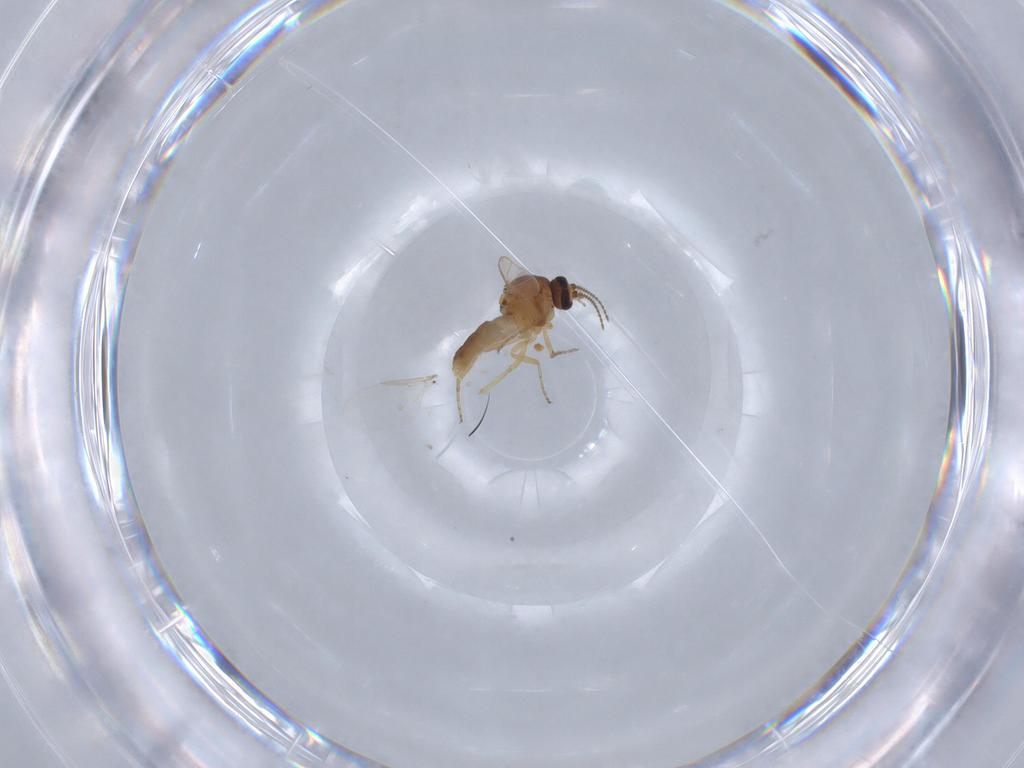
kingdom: Animalia
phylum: Arthropoda
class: Insecta
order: Diptera
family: Ceratopogonidae
